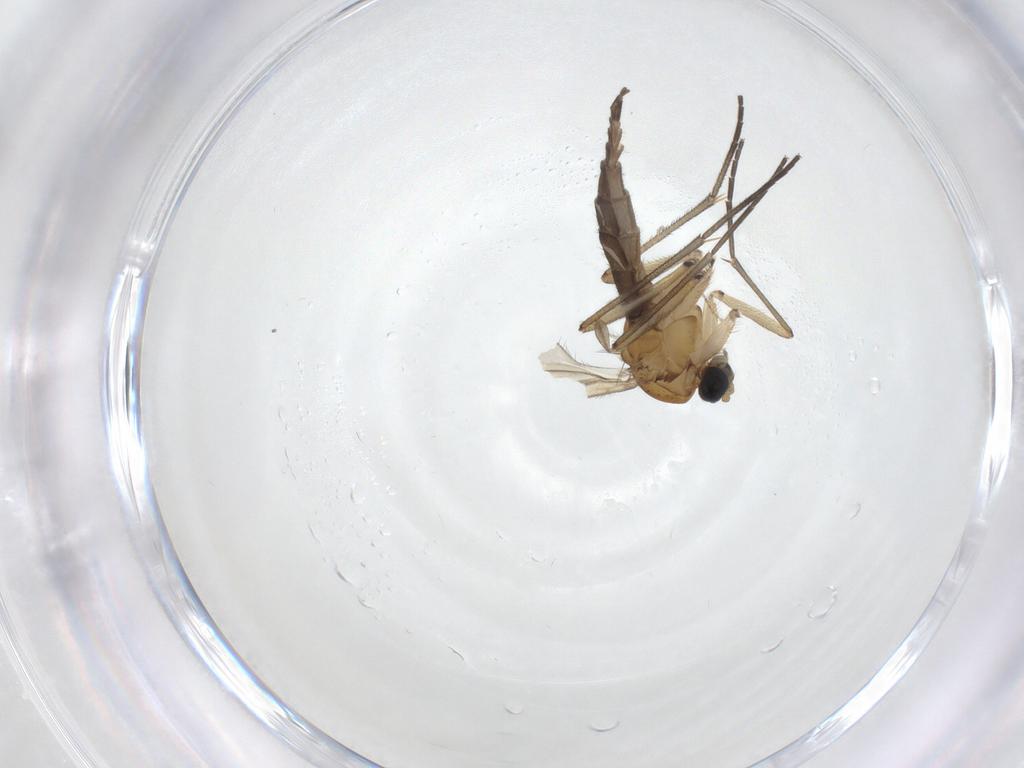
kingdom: Animalia
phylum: Arthropoda
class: Insecta
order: Diptera
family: Sciaridae
